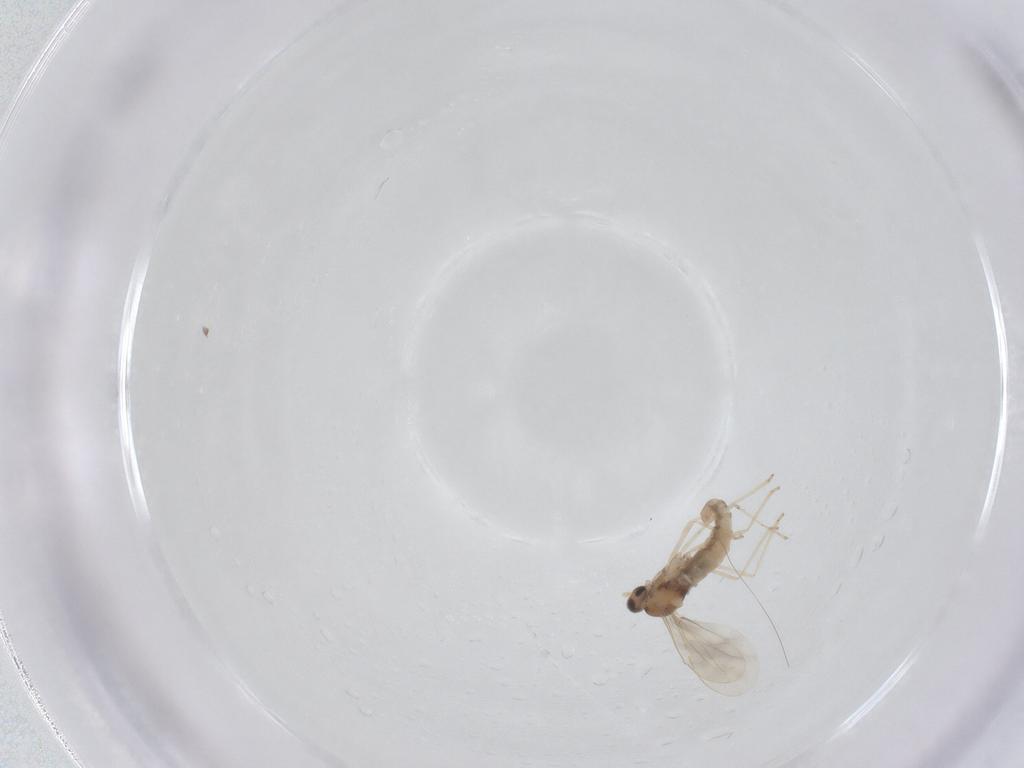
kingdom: Animalia
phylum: Arthropoda
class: Insecta
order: Diptera
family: Cecidomyiidae
